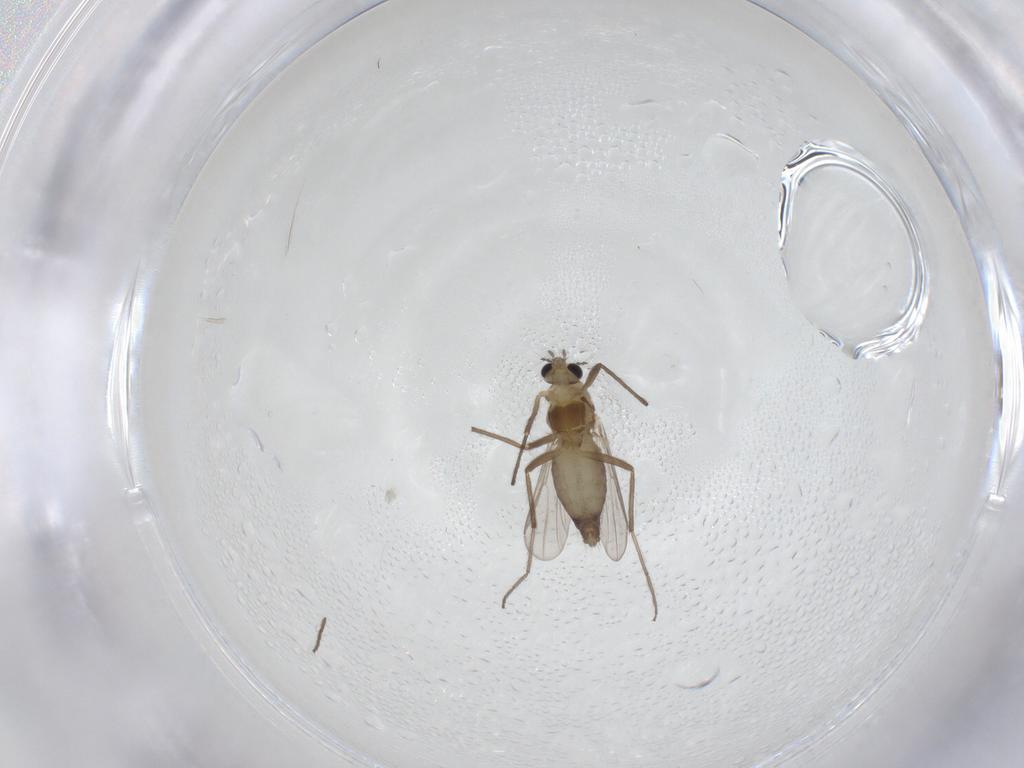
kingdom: Animalia
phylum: Arthropoda
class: Insecta
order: Diptera
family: Chironomidae
